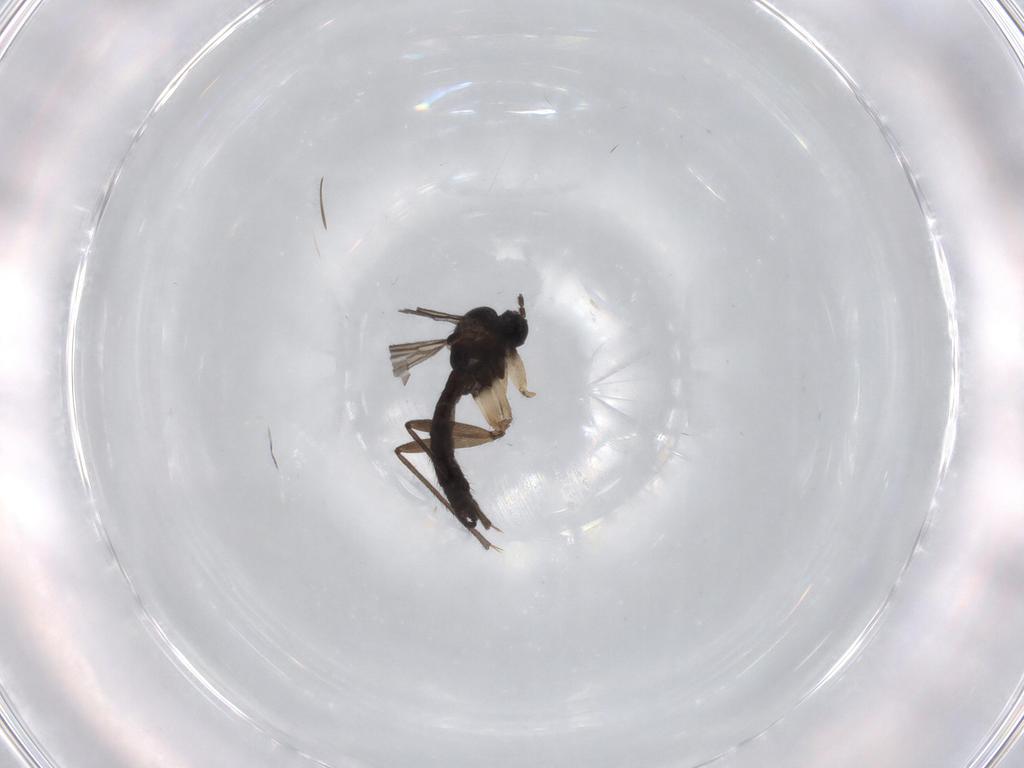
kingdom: Animalia
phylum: Arthropoda
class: Insecta
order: Diptera
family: Sciaridae
